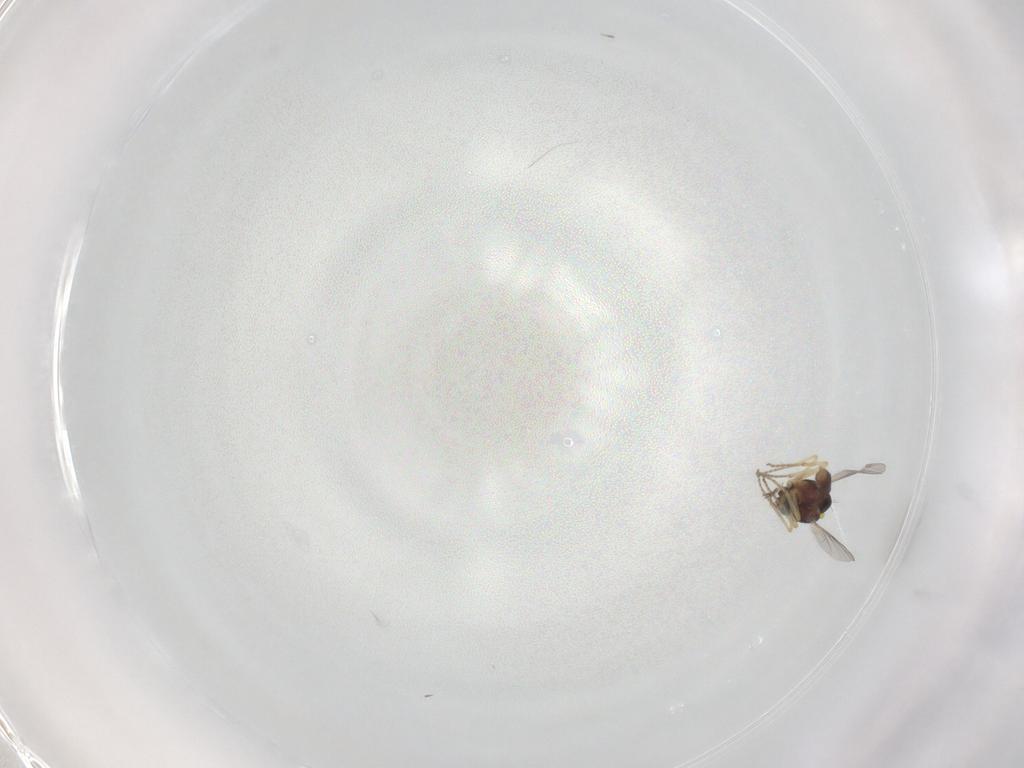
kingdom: Animalia
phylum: Arthropoda
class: Insecta
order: Diptera
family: Ceratopogonidae
